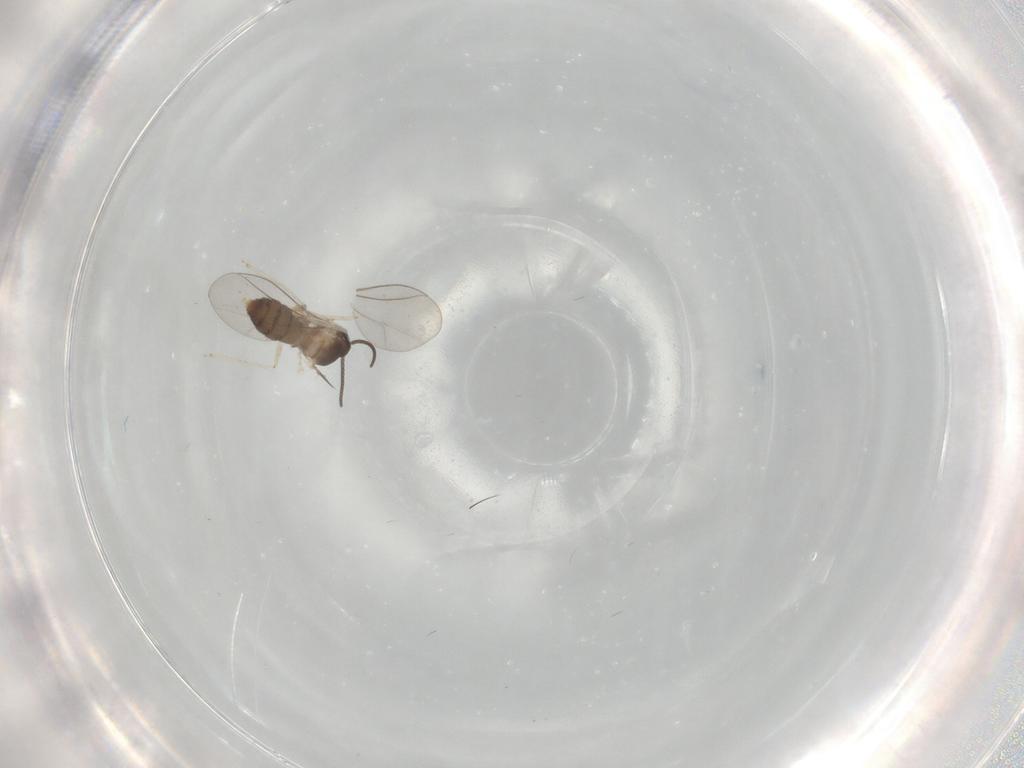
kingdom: Animalia
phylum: Arthropoda
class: Insecta
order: Diptera
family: Cecidomyiidae
